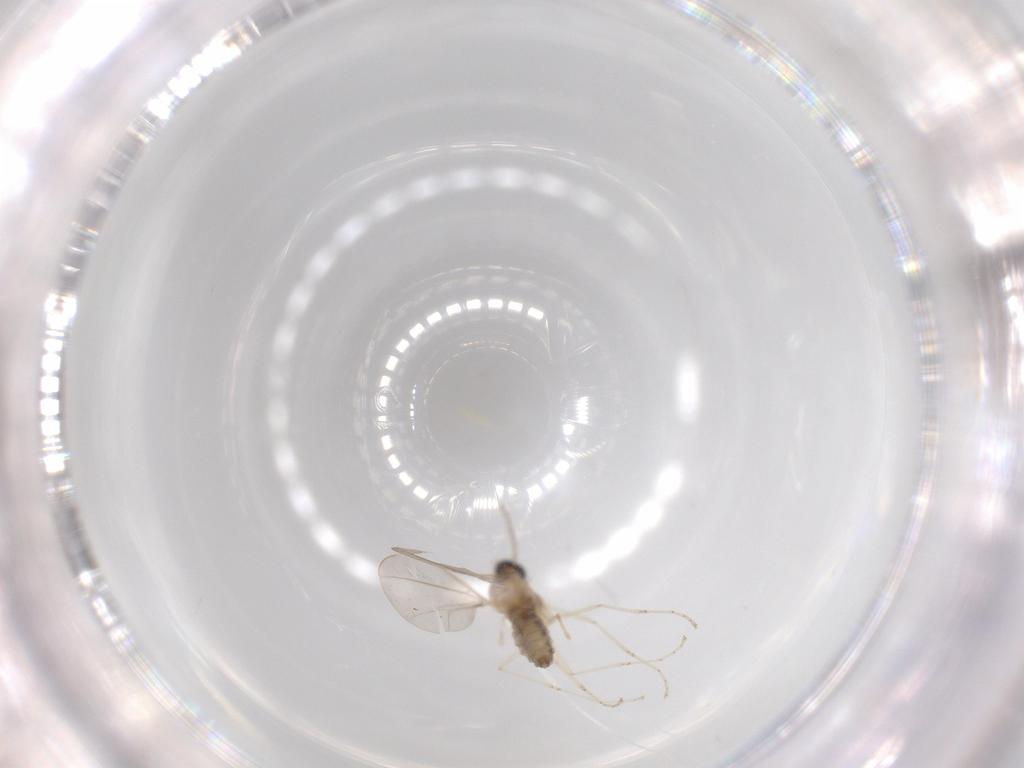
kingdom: Animalia
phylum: Arthropoda
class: Insecta
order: Diptera
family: Cecidomyiidae
